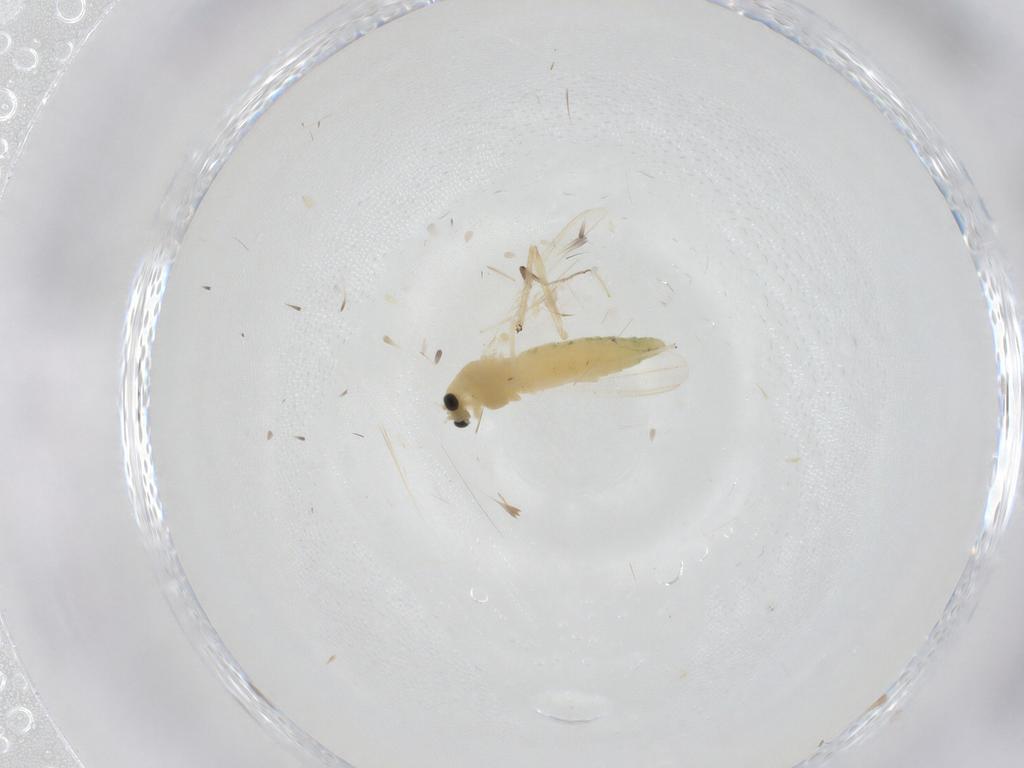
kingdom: Animalia
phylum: Arthropoda
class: Insecta
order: Diptera
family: Chironomidae
